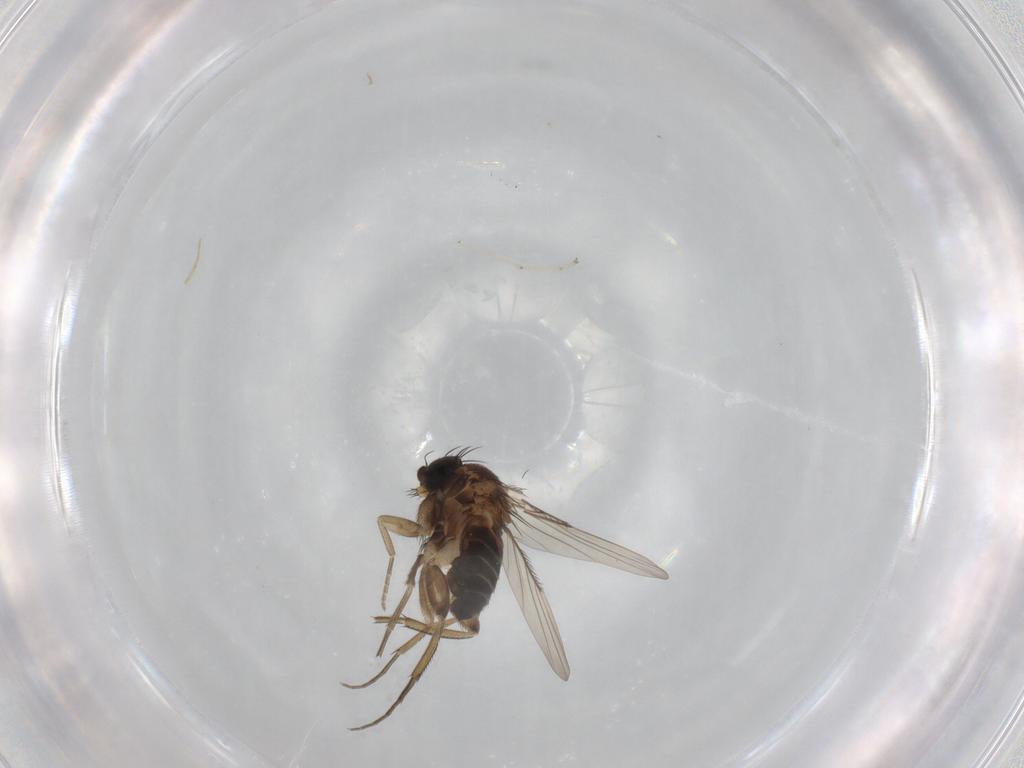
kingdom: Animalia
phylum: Arthropoda
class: Insecta
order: Diptera
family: Phoridae
